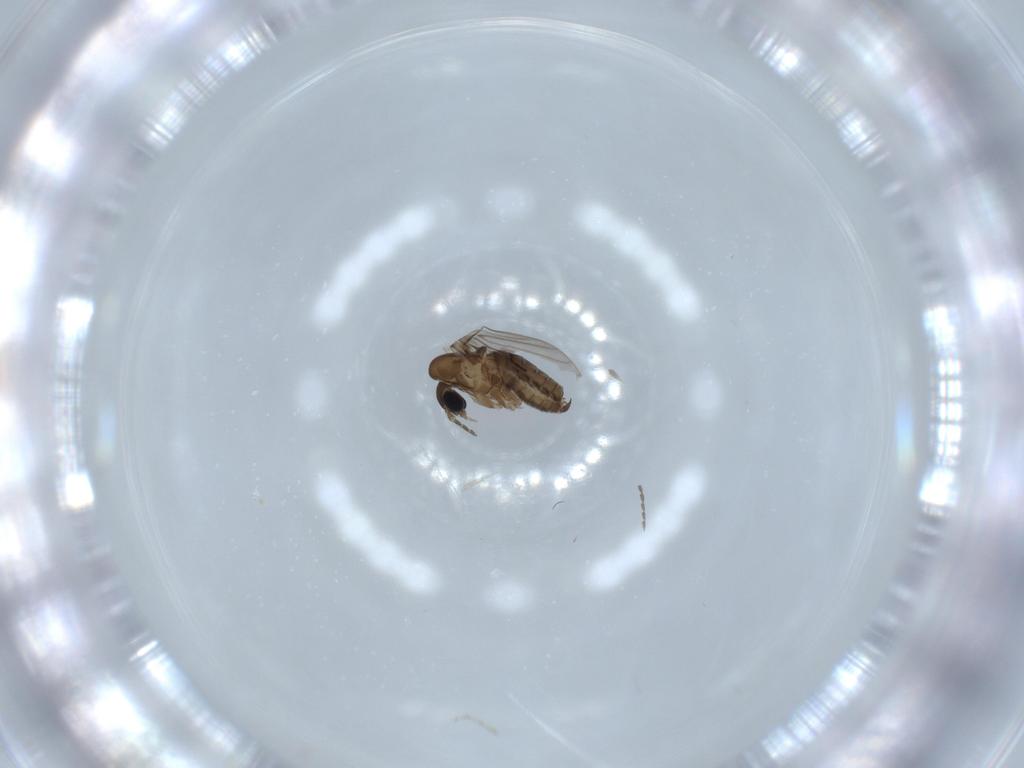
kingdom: Animalia
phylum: Arthropoda
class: Insecta
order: Diptera
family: Psychodidae
